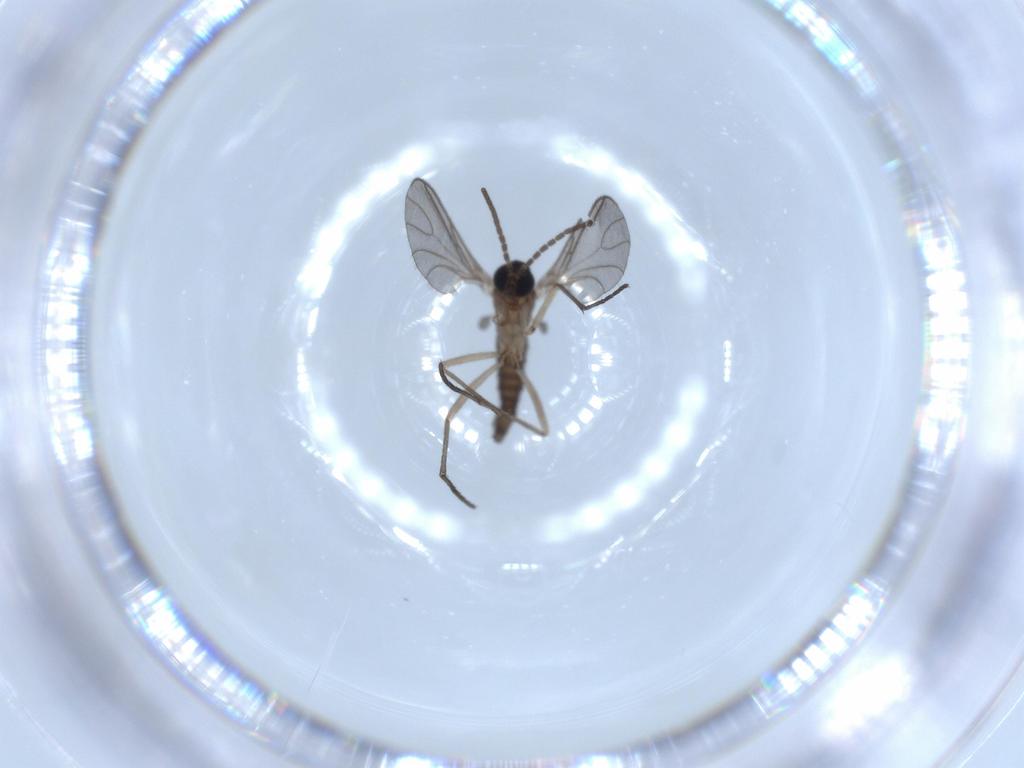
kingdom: Animalia
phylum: Arthropoda
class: Insecta
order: Diptera
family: Sciaridae
